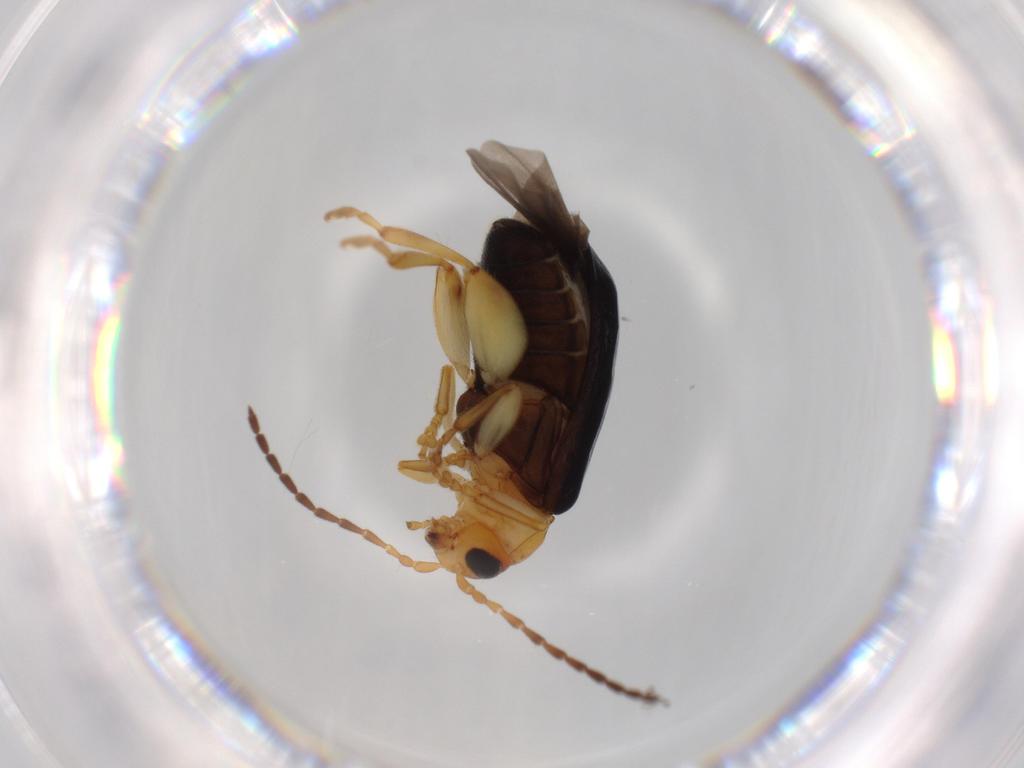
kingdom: Animalia
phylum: Arthropoda
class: Insecta
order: Coleoptera
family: Chrysomelidae
